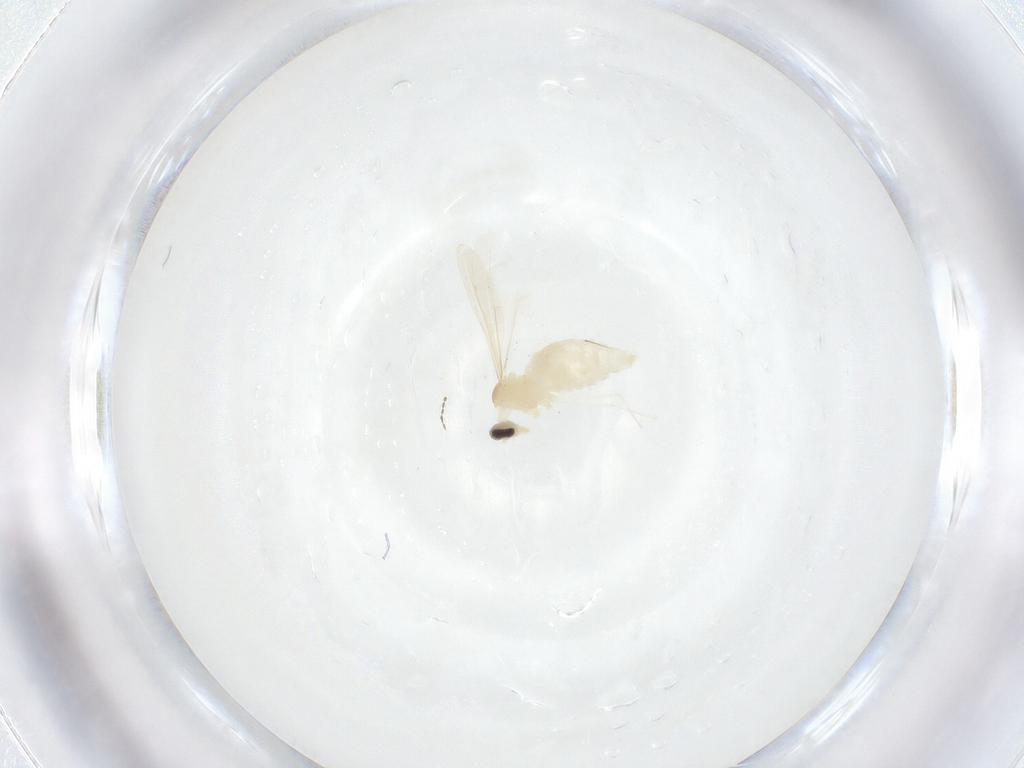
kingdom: Animalia
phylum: Arthropoda
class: Insecta
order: Diptera
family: Cecidomyiidae
